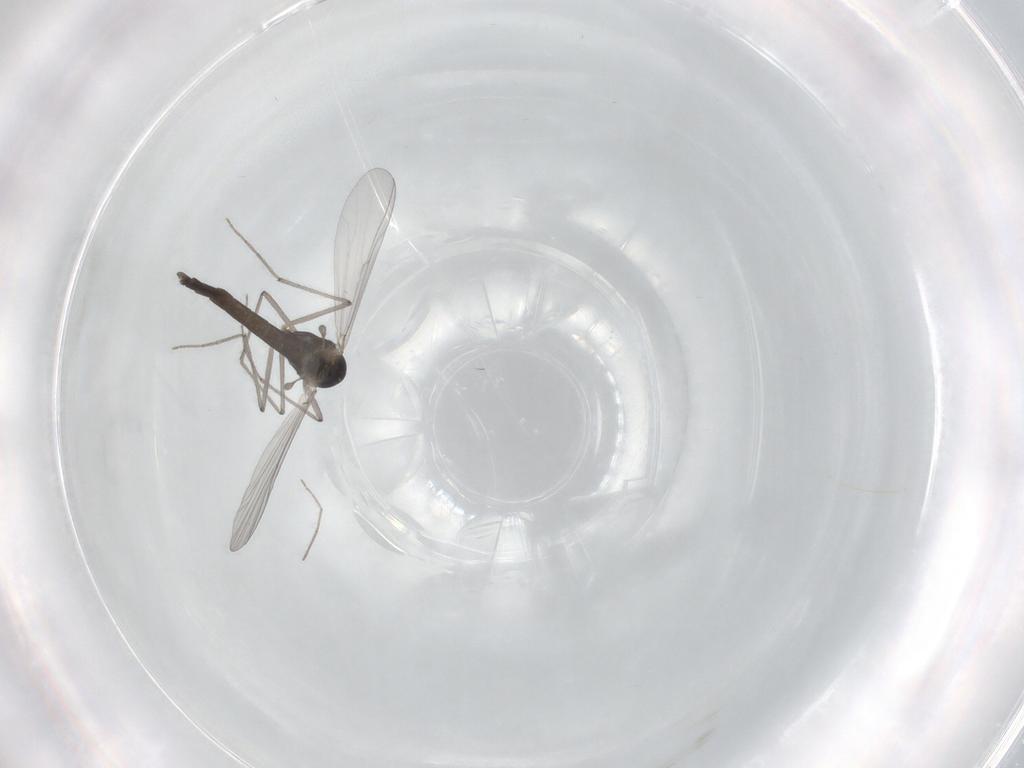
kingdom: Animalia
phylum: Arthropoda
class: Insecta
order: Diptera
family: Chironomidae
